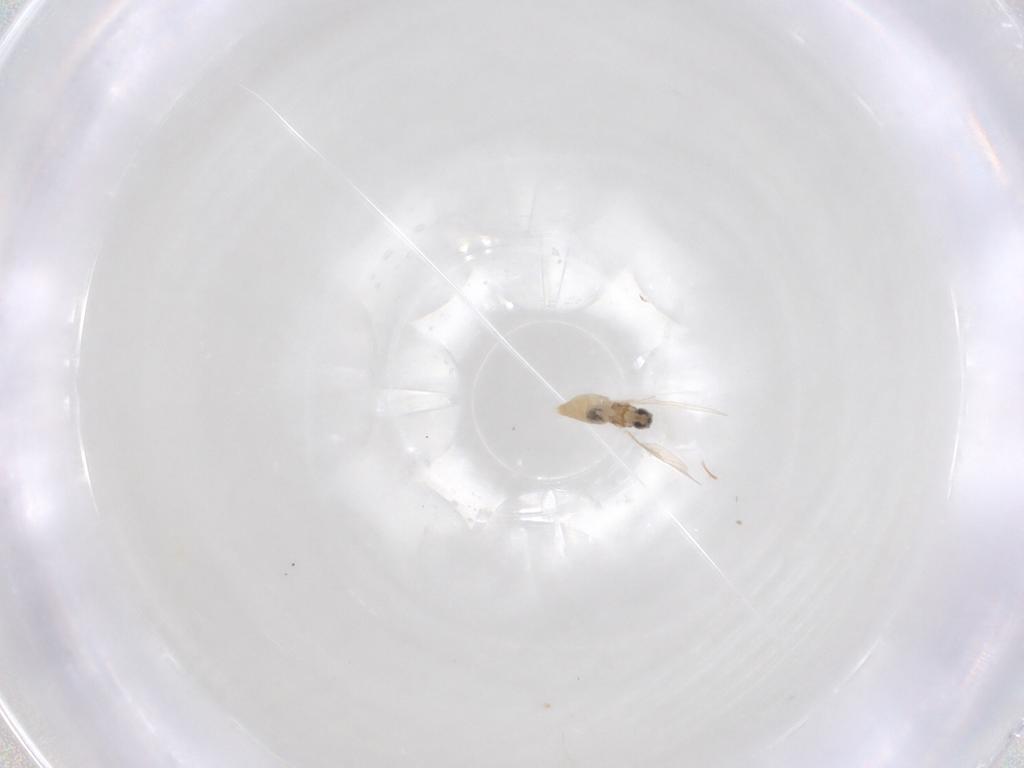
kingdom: Animalia
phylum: Arthropoda
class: Insecta
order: Diptera
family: Cecidomyiidae
